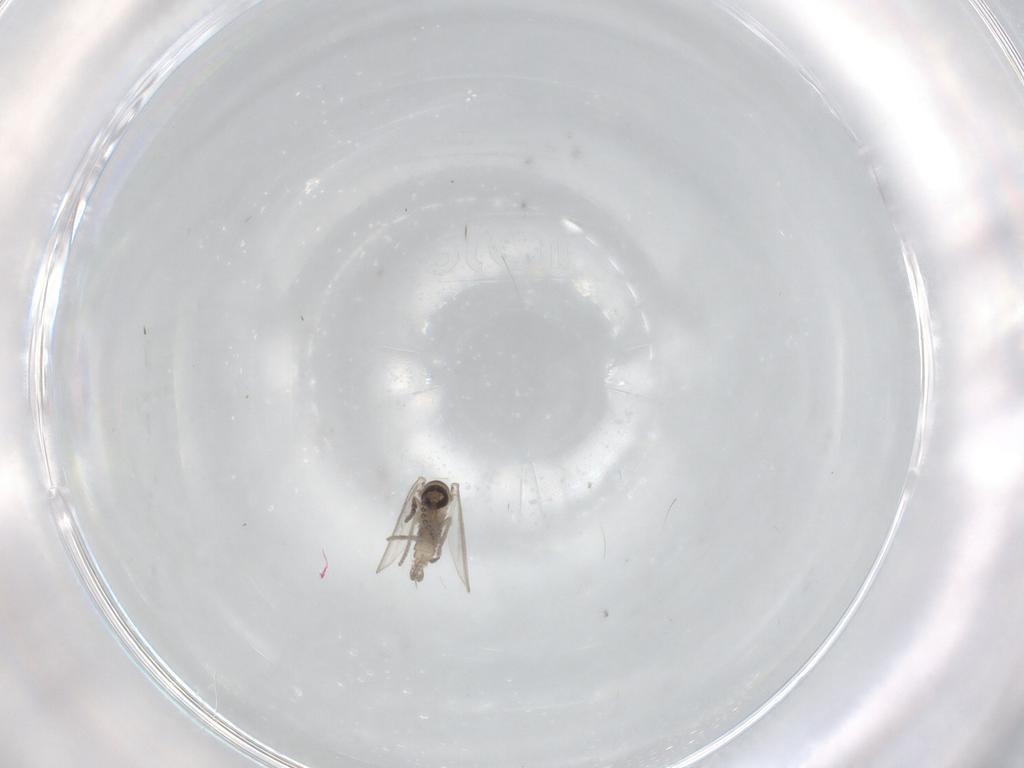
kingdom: Animalia
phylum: Arthropoda
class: Insecta
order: Diptera
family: Psychodidae
